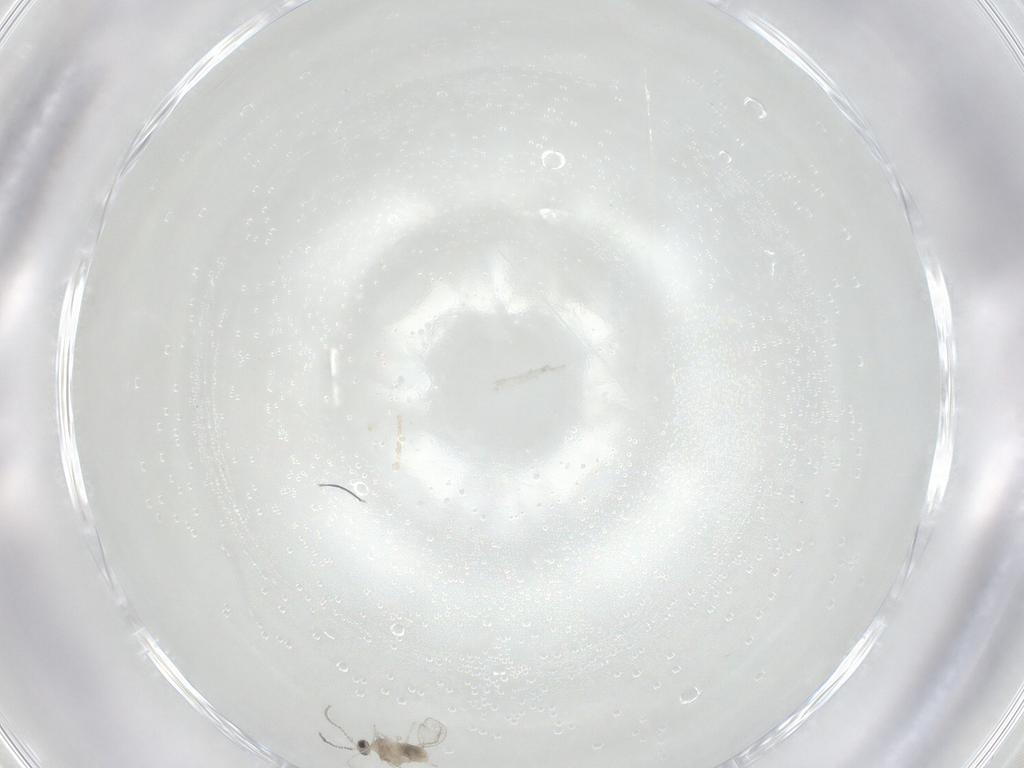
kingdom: Animalia
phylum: Arthropoda
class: Insecta
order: Diptera
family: Cecidomyiidae
